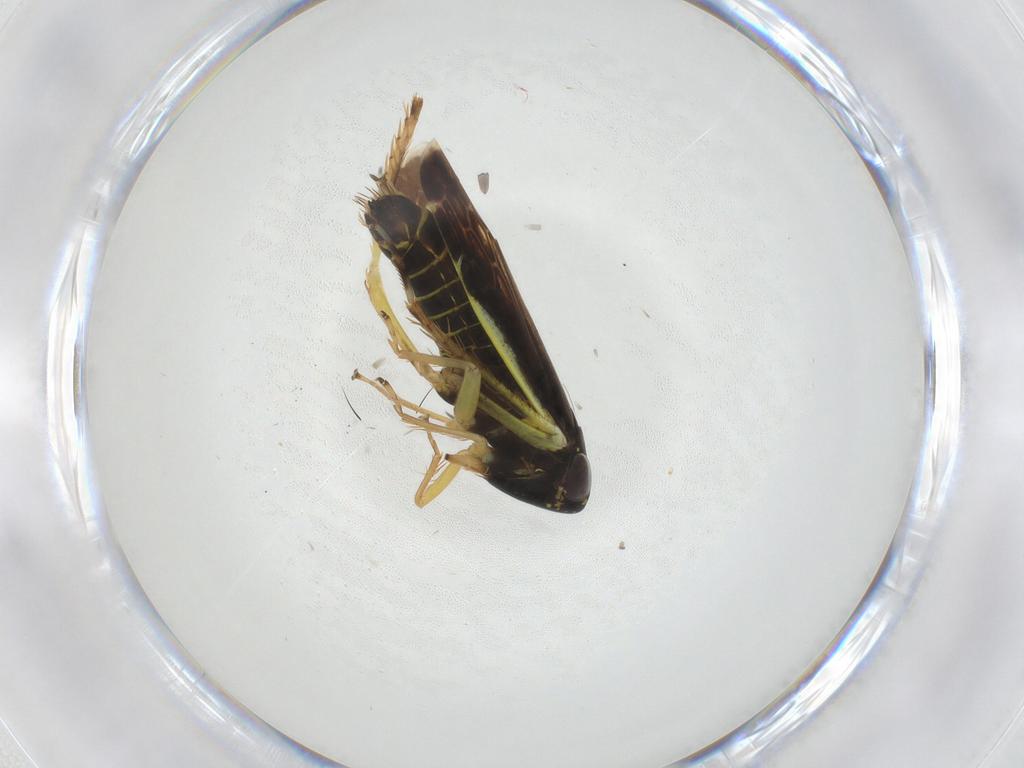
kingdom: Animalia
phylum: Arthropoda
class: Insecta
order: Hemiptera
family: Cicadellidae
